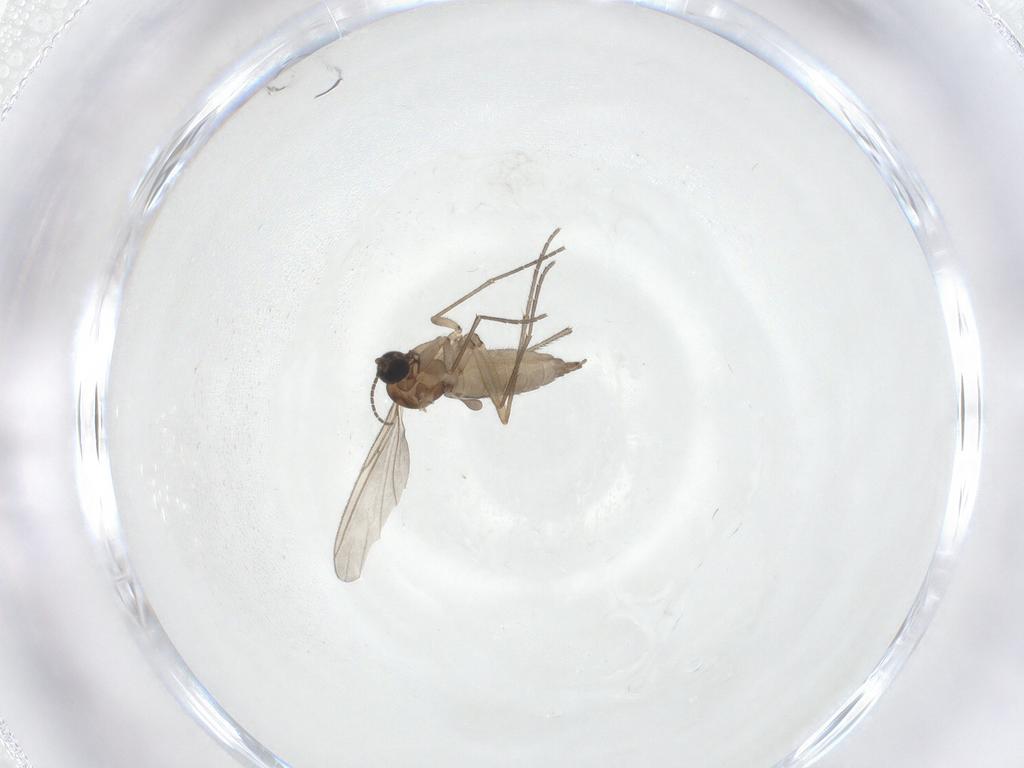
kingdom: Animalia
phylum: Arthropoda
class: Insecta
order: Diptera
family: Sciaridae
